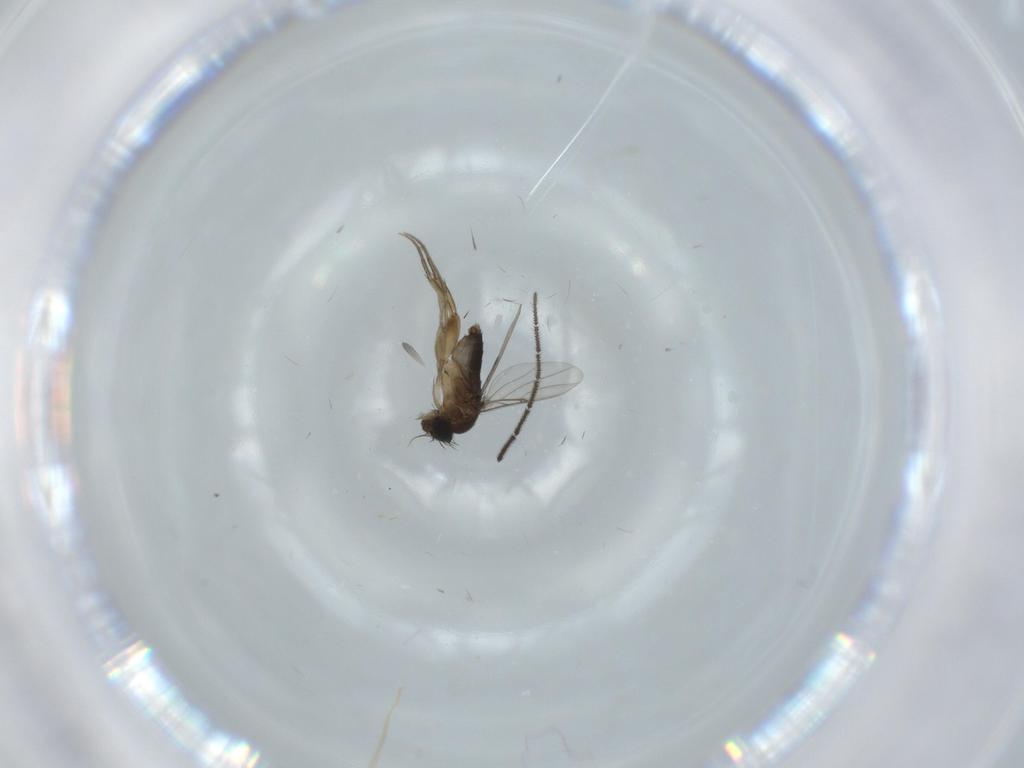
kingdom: Animalia
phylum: Arthropoda
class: Insecta
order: Diptera
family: Phoridae
